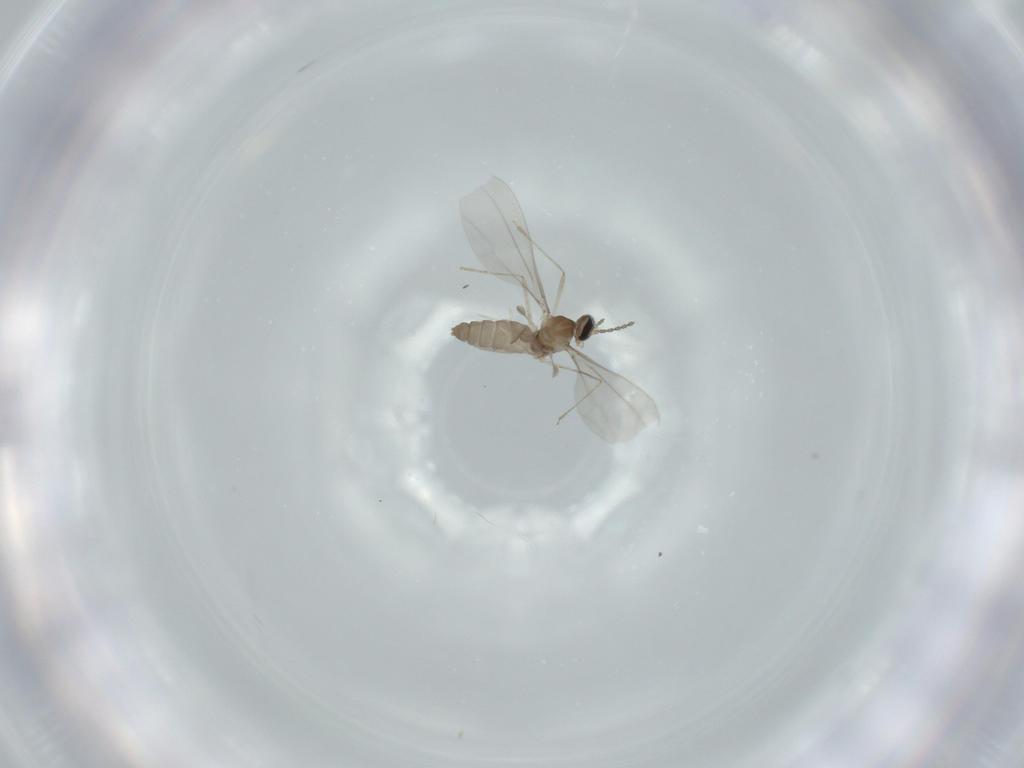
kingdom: Animalia
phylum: Arthropoda
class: Insecta
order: Diptera
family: Cecidomyiidae
